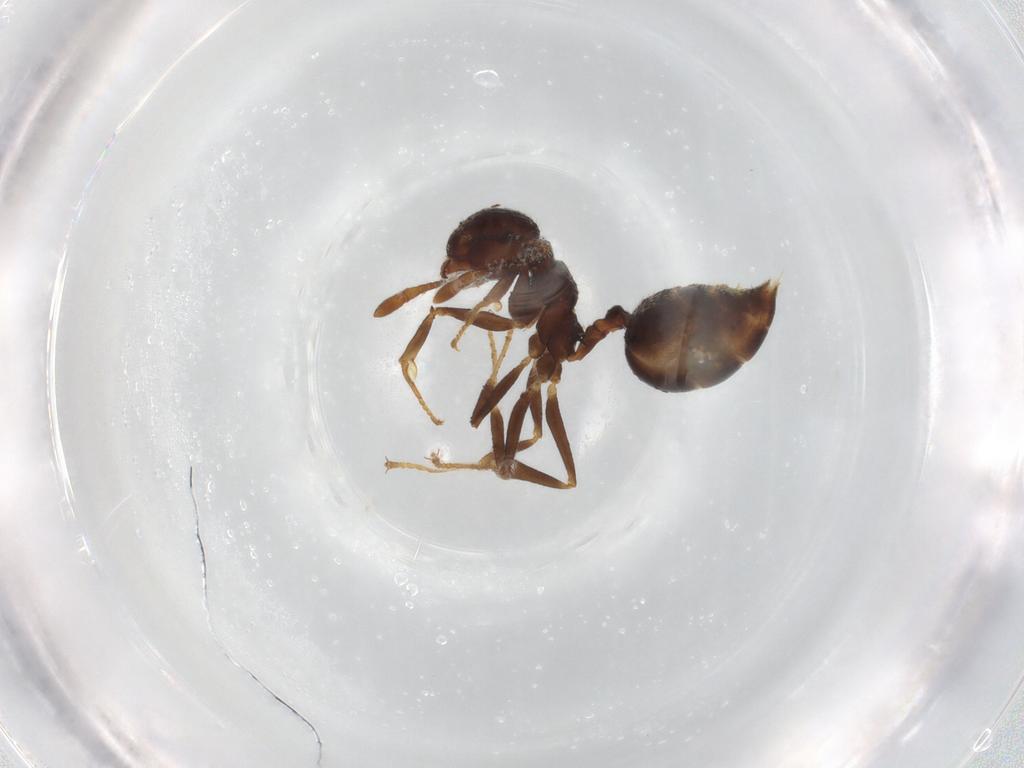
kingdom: Animalia
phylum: Arthropoda
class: Insecta
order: Hymenoptera
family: Formicidae
